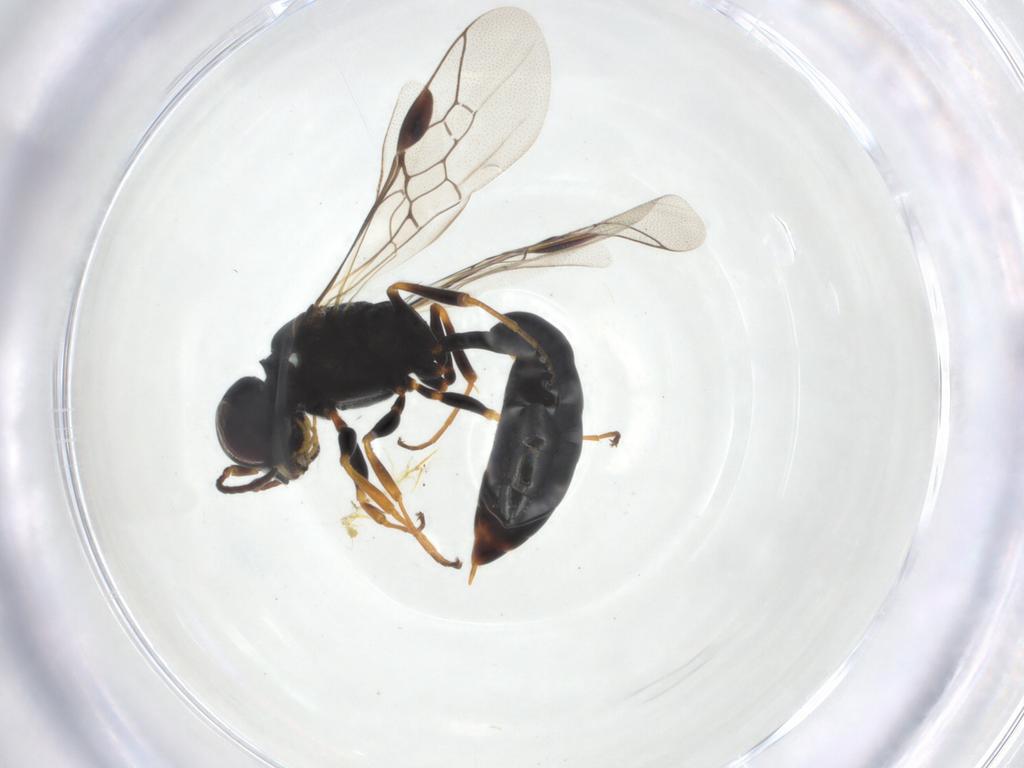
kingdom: Animalia
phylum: Arthropoda
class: Insecta
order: Hymenoptera
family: Crabronidae
